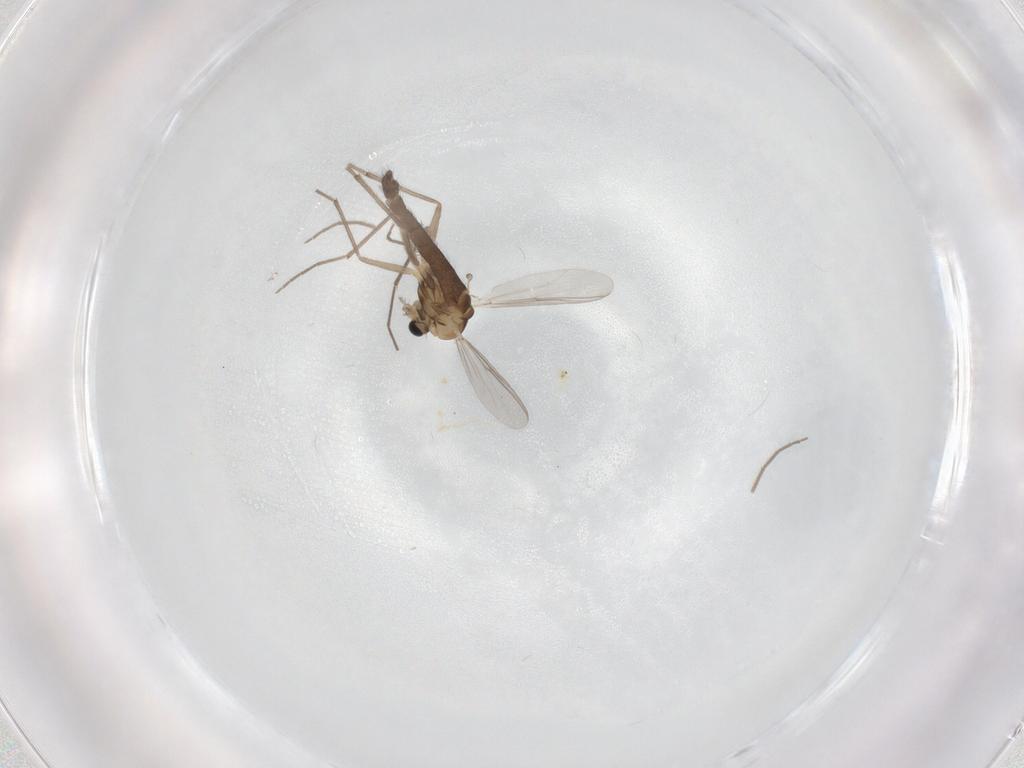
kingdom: Animalia
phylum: Arthropoda
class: Insecta
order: Diptera
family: Chironomidae
